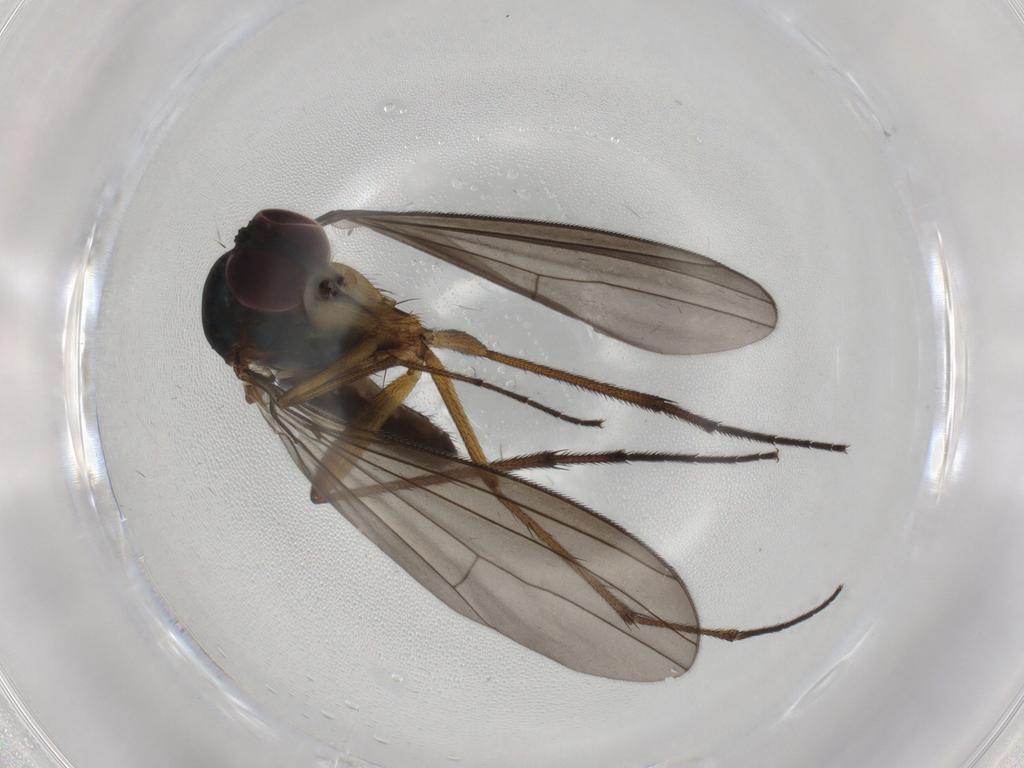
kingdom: Animalia
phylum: Arthropoda
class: Insecta
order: Diptera
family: Dolichopodidae
